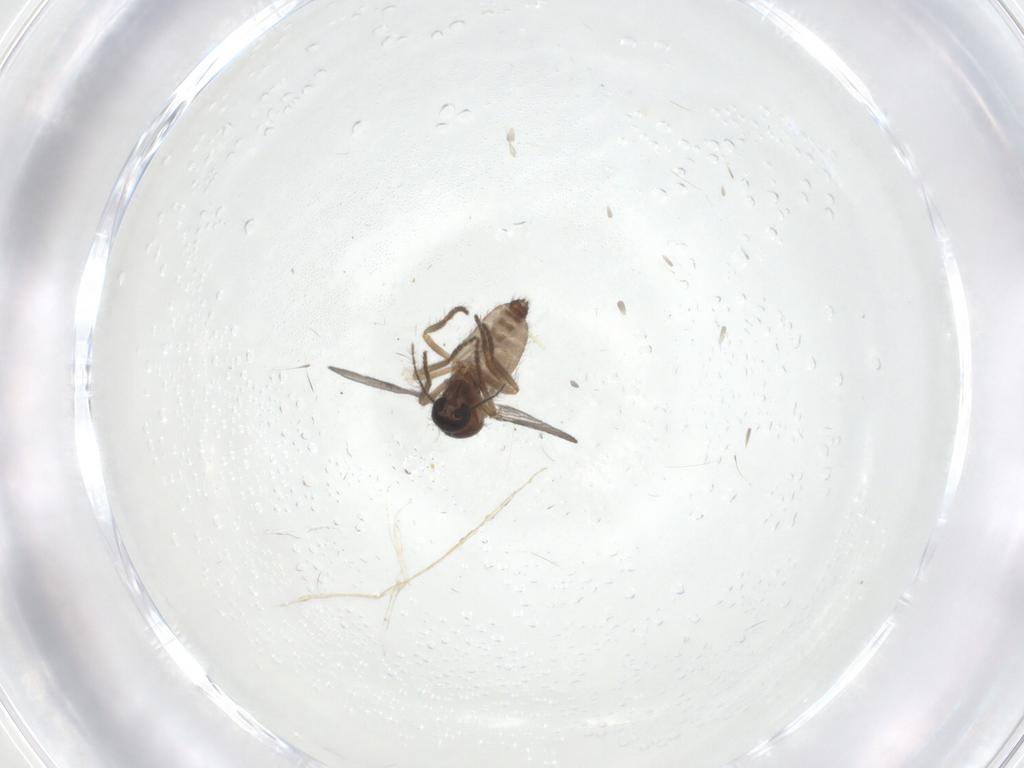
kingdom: Animalia
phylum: Arthropoda
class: Insecta
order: Diptera
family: Ceratopogonidae
